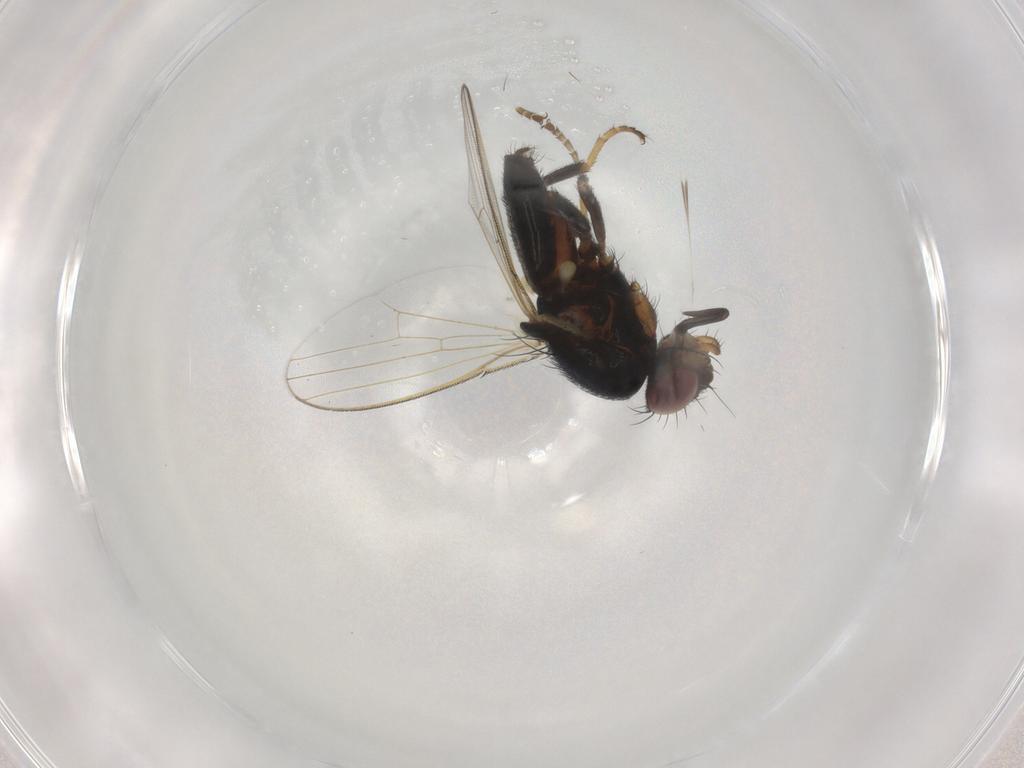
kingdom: Animalia
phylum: Arthropoda
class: Insecta
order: Diptera
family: Milichiidae
